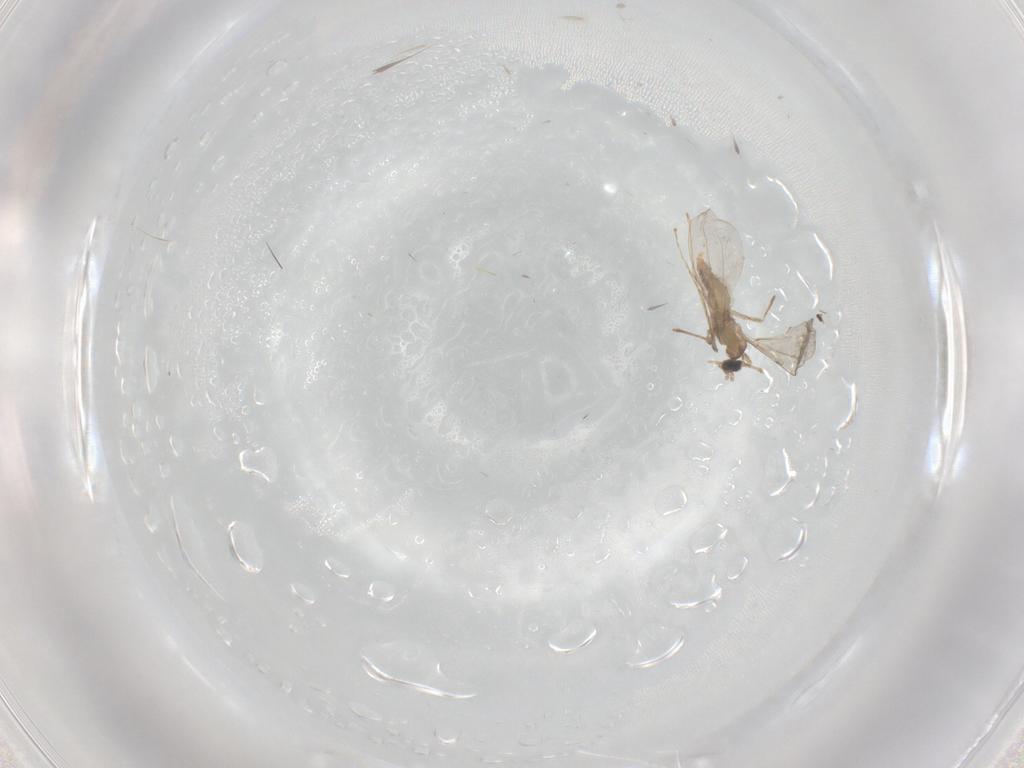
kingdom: Animalia
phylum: Arthropoda
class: Insecta
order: Diptera
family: Cecidomyiidae
